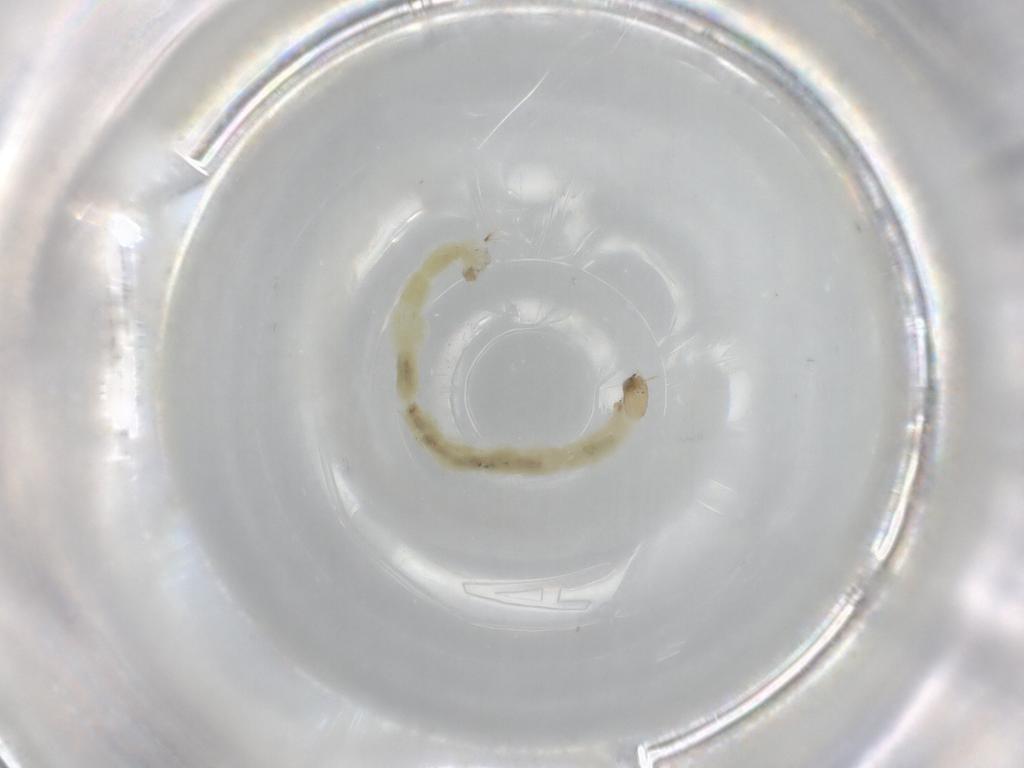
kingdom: Animalia
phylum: Arthropoda
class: Insecta
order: Diptera
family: Chironomidae
